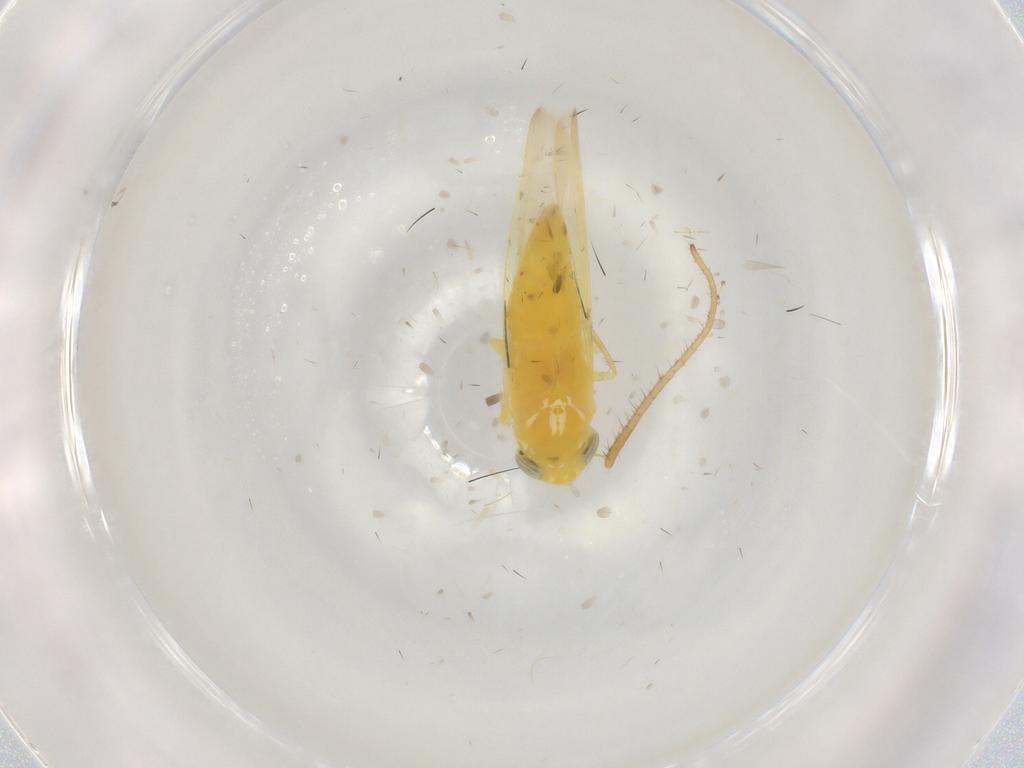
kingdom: Animalia
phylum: Arthropoda
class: Insecta
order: Hemiptera
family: Cicadellidae
